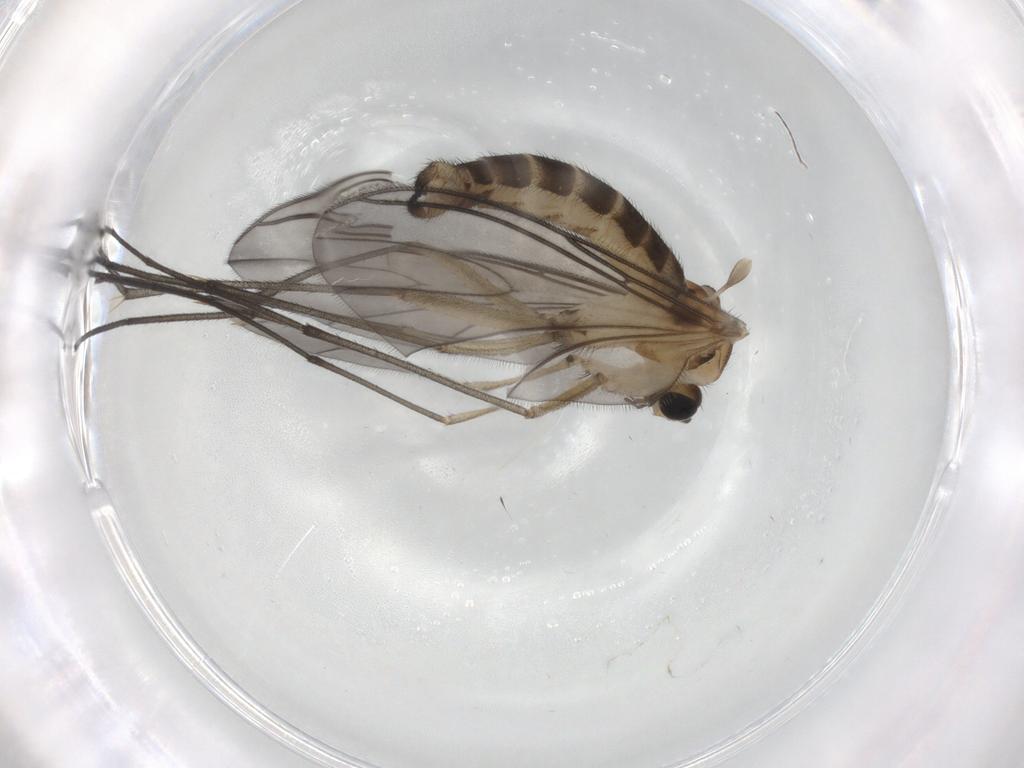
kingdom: Animalia
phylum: Arthropoda
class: Insecta
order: Diptera
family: Sciaridae
